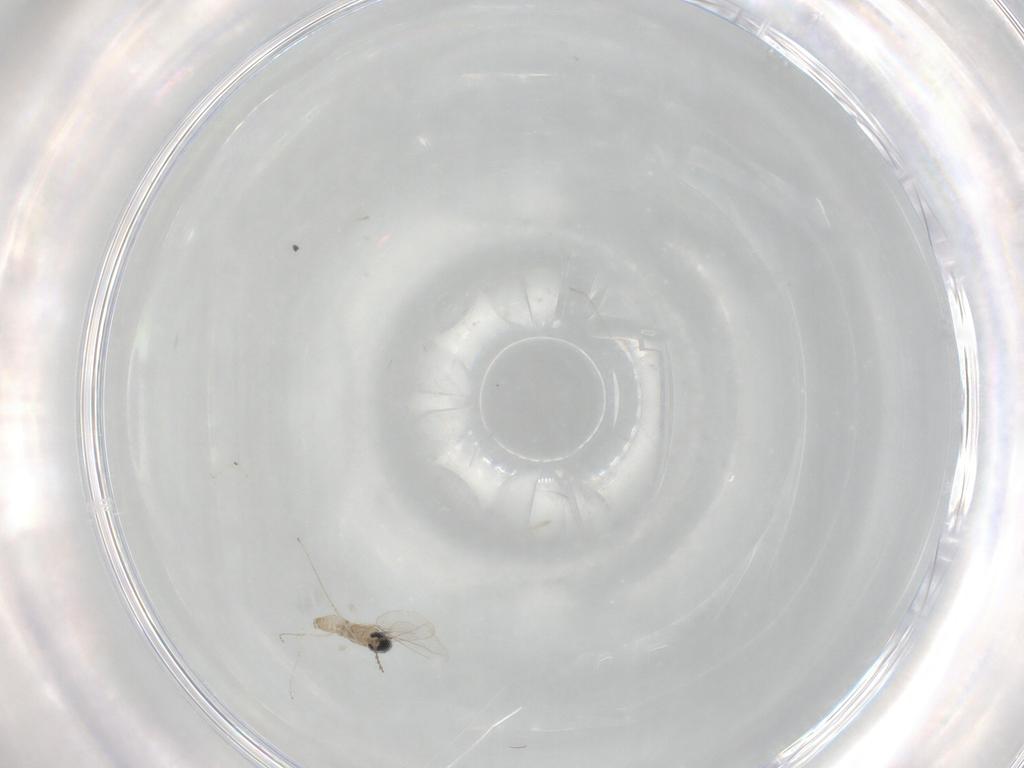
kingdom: Animalia
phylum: Arthropoda
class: Insecta
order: Diptera
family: Cecidomyiidae
